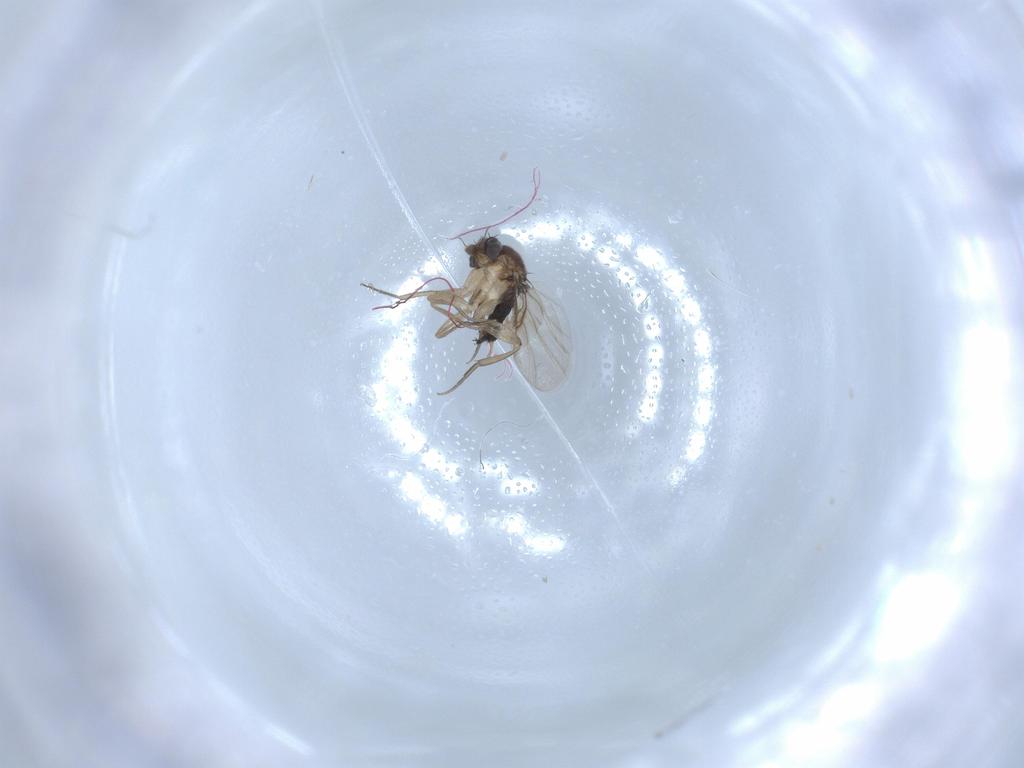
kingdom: Animalia
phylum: Arthropoda
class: Insecta
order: Diptera
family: Phoridae
